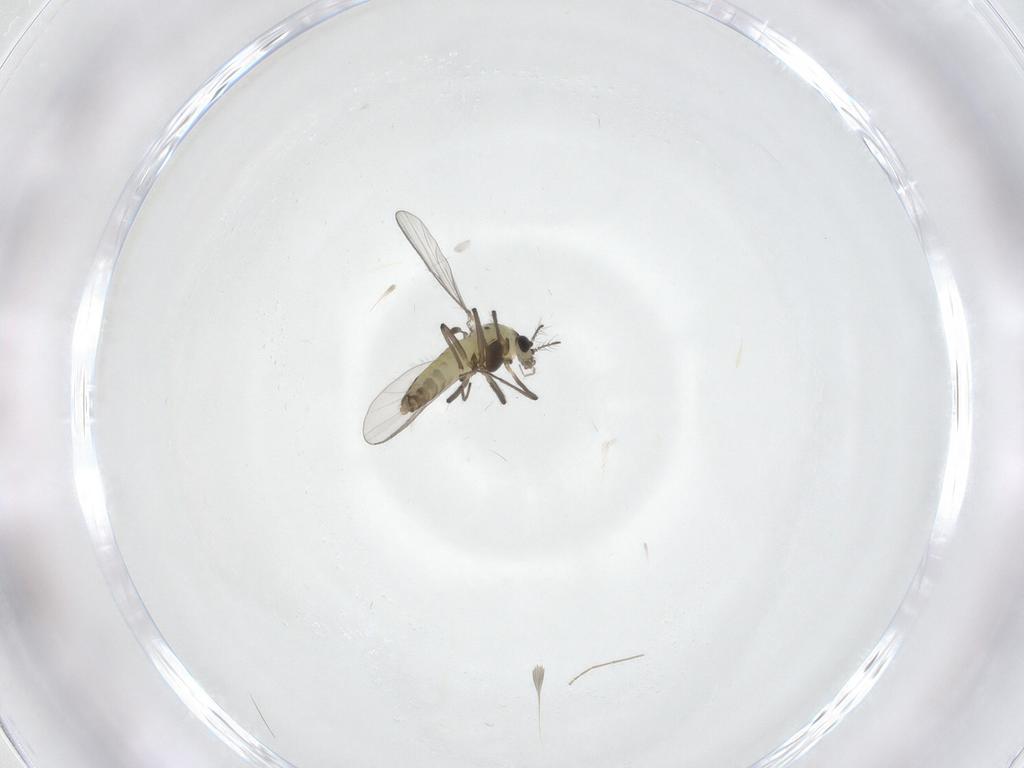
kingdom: Animalia
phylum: Arthropoda
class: Insecta
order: Diptera
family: Chironomidae
